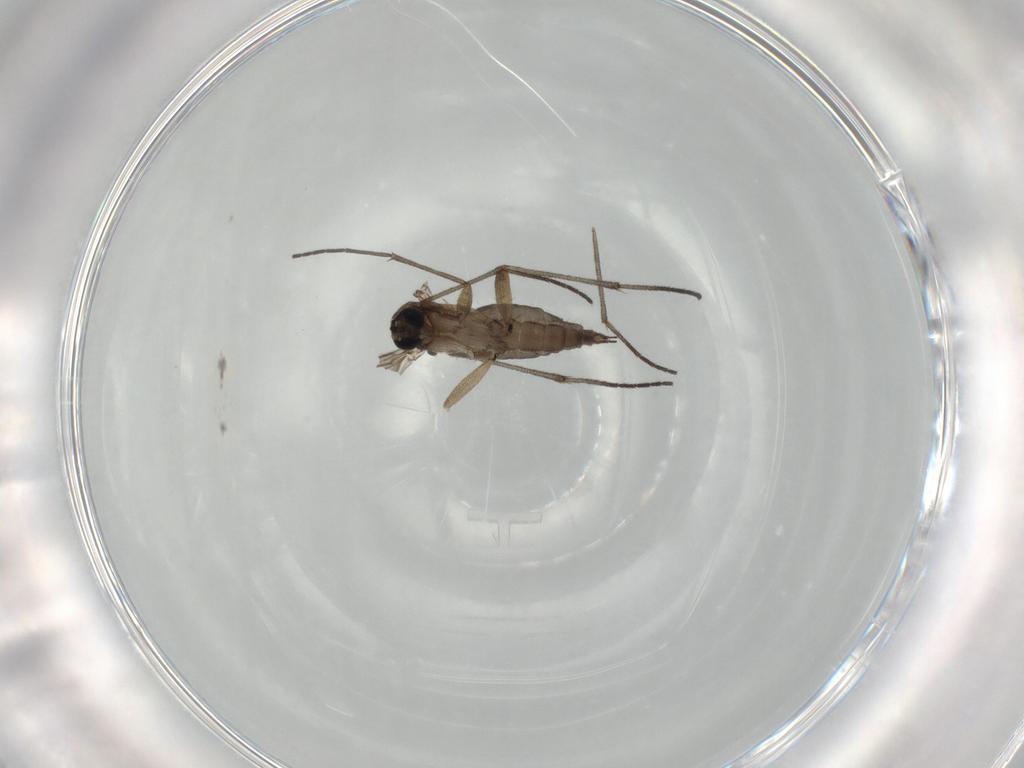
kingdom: Animalia
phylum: Arthropoda
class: Insecta
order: Diptera
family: Sciaridae
